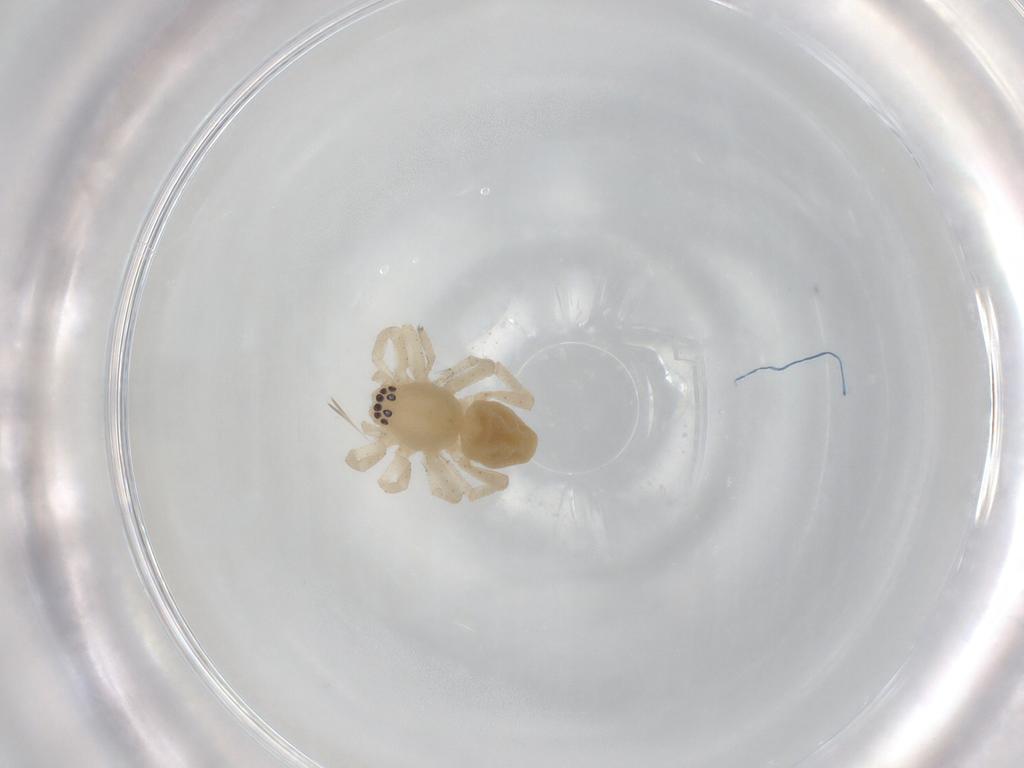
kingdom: Animalia
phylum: Arthropoda
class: Arachnida
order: Araneae
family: Clubionidae
